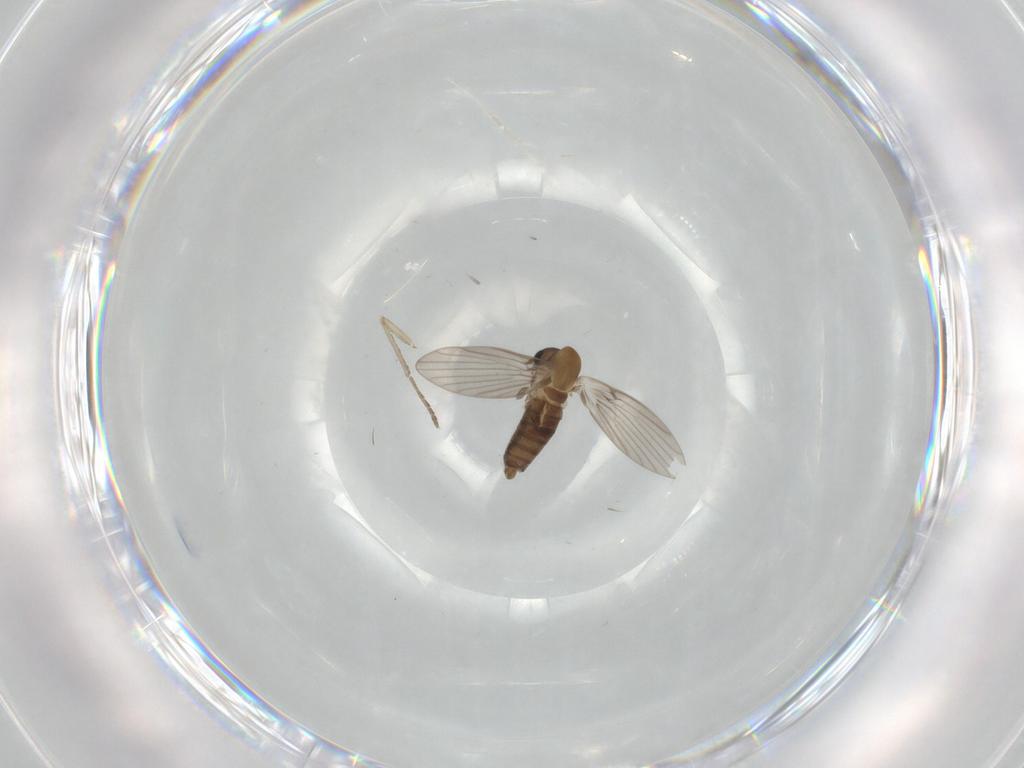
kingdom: Animalia
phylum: Arthropoda
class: Insecta
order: Diptera
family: Psychodidae
